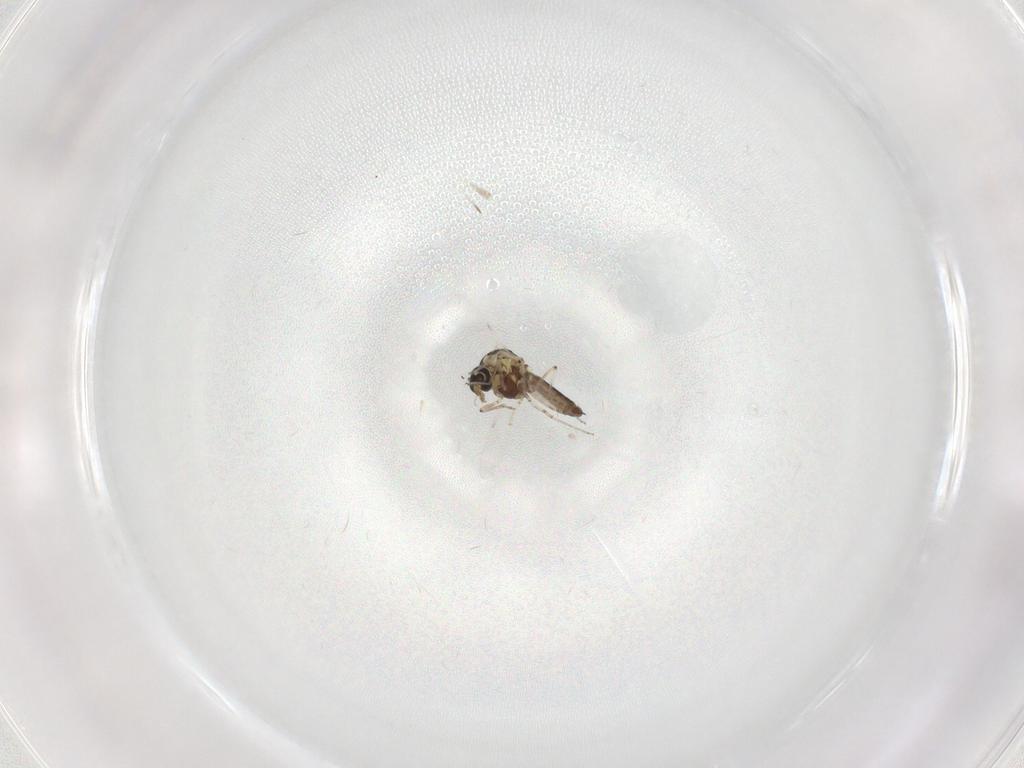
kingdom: Animalia
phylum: Arthropoda
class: Insecta
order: Diptera
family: Ceratopogonidae
